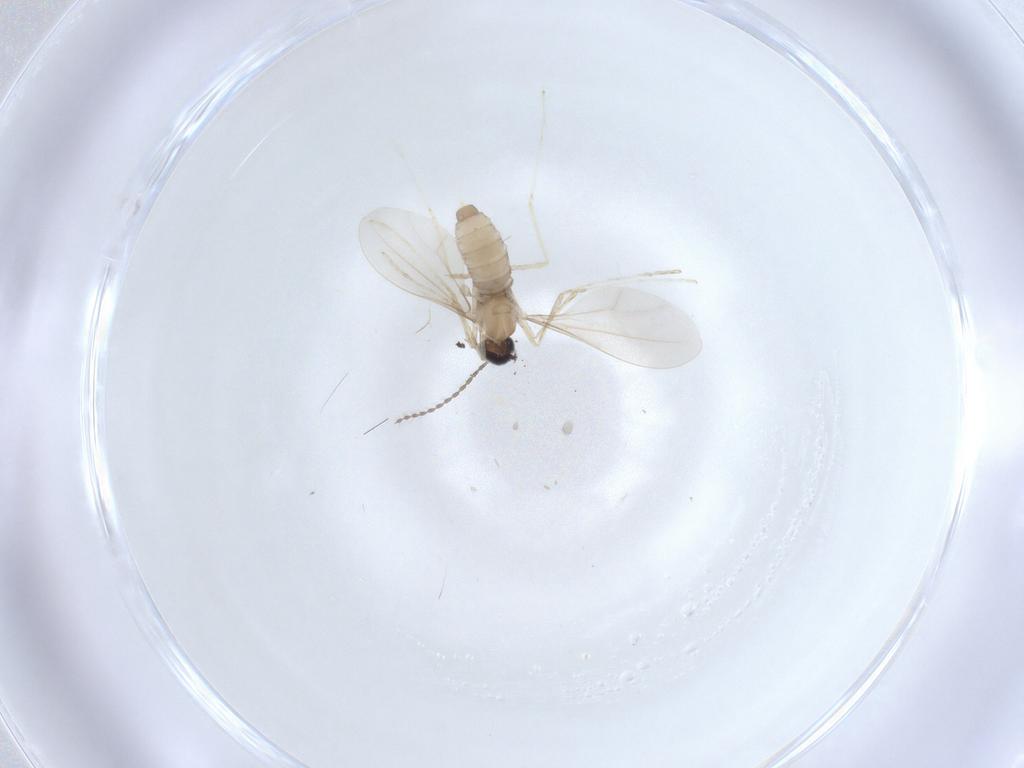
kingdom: Animalia
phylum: Arthropoda
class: Insecta
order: Diptera
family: Cecidomyiidae
